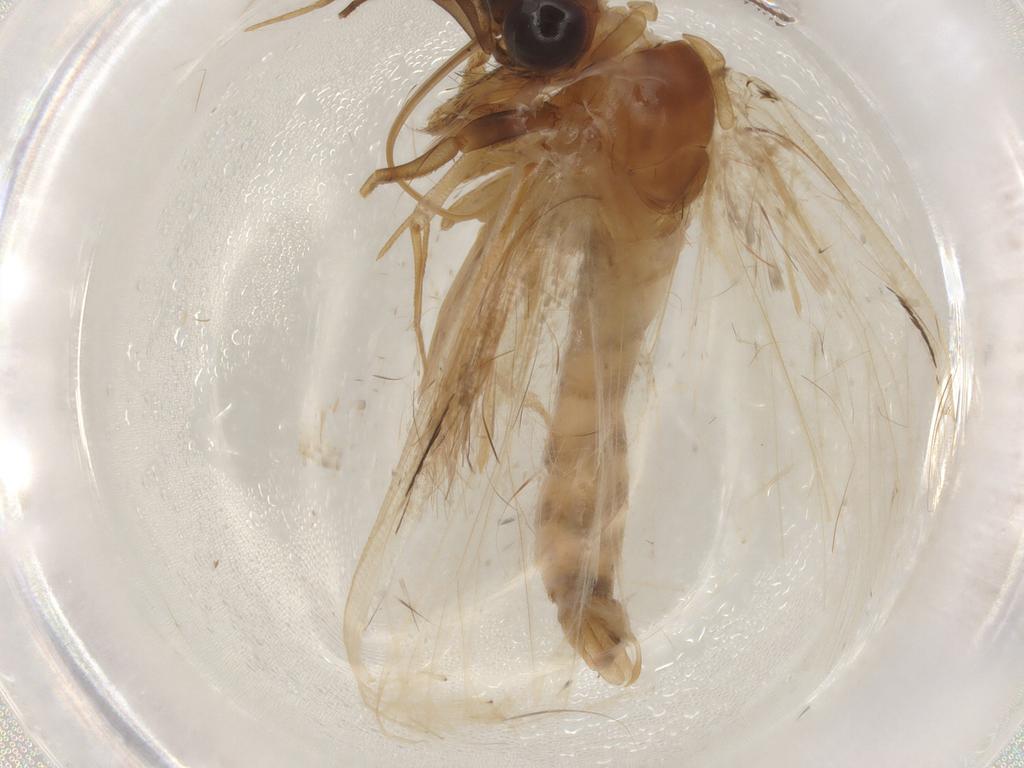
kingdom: Animalia
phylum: Arthropoda
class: Insecta
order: Lepidoptera
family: Erebidae
